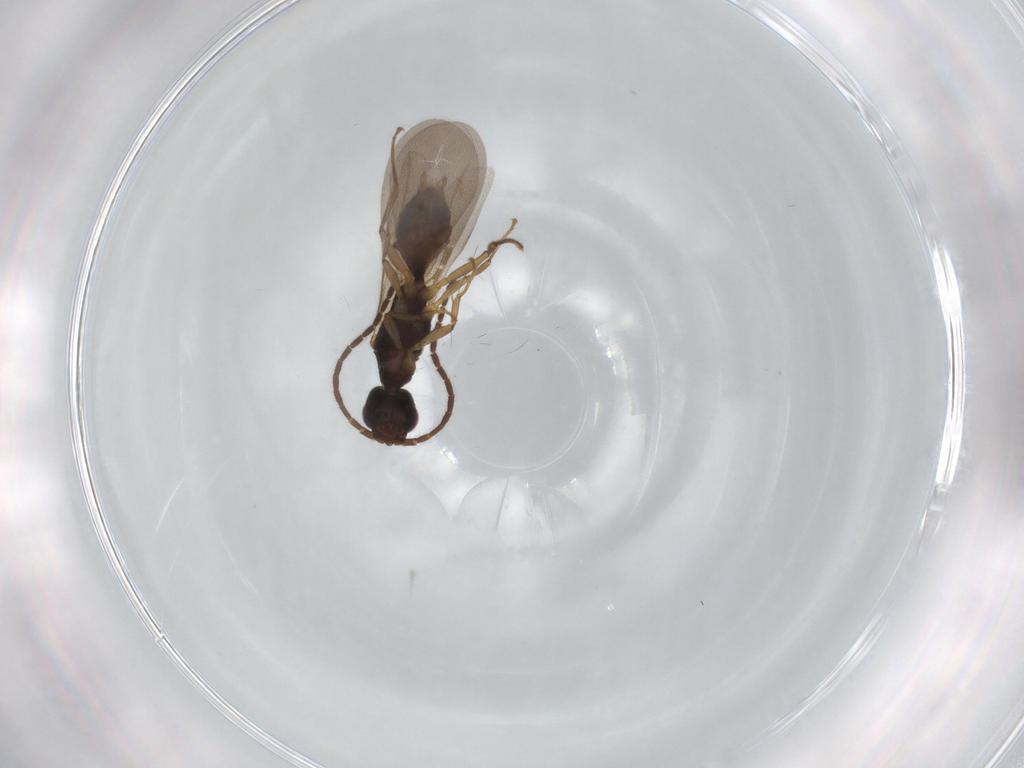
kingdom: Animalia
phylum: Arthropoda
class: Insecta
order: Hymenoptera
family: Bethylidae
